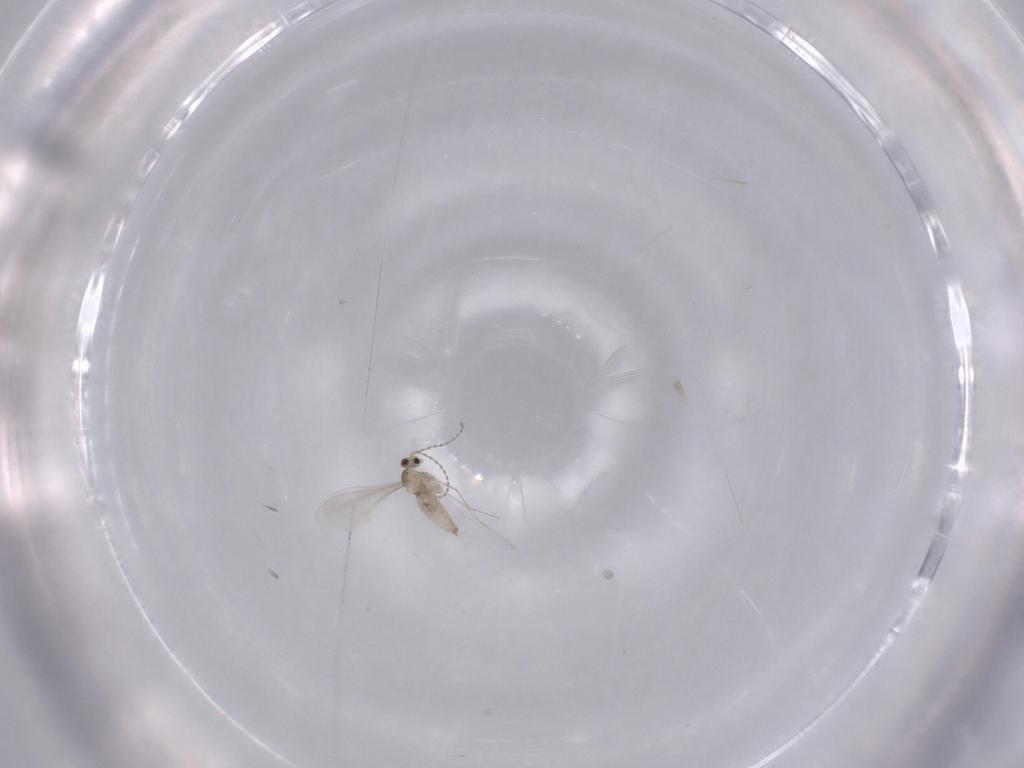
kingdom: Animalia
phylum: Arthropoda
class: Insecta
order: Diptera
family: Cecidomyiidae
